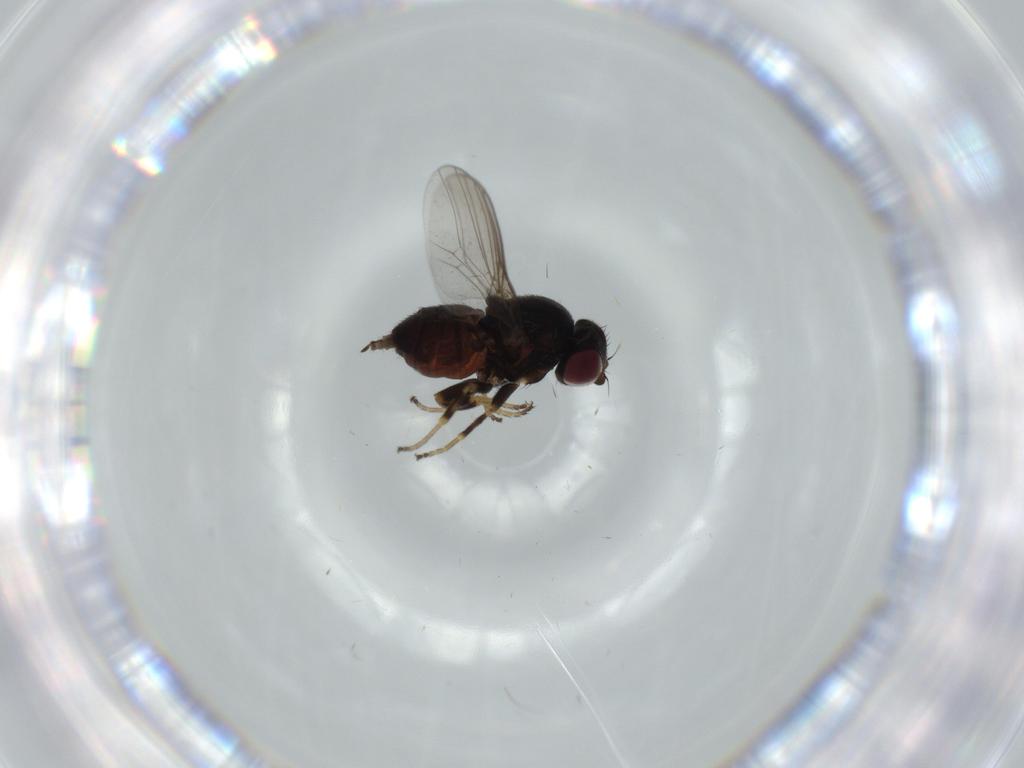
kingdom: Animalia
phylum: Arthropoda
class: Insecta
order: Diptera
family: Chloropidae
